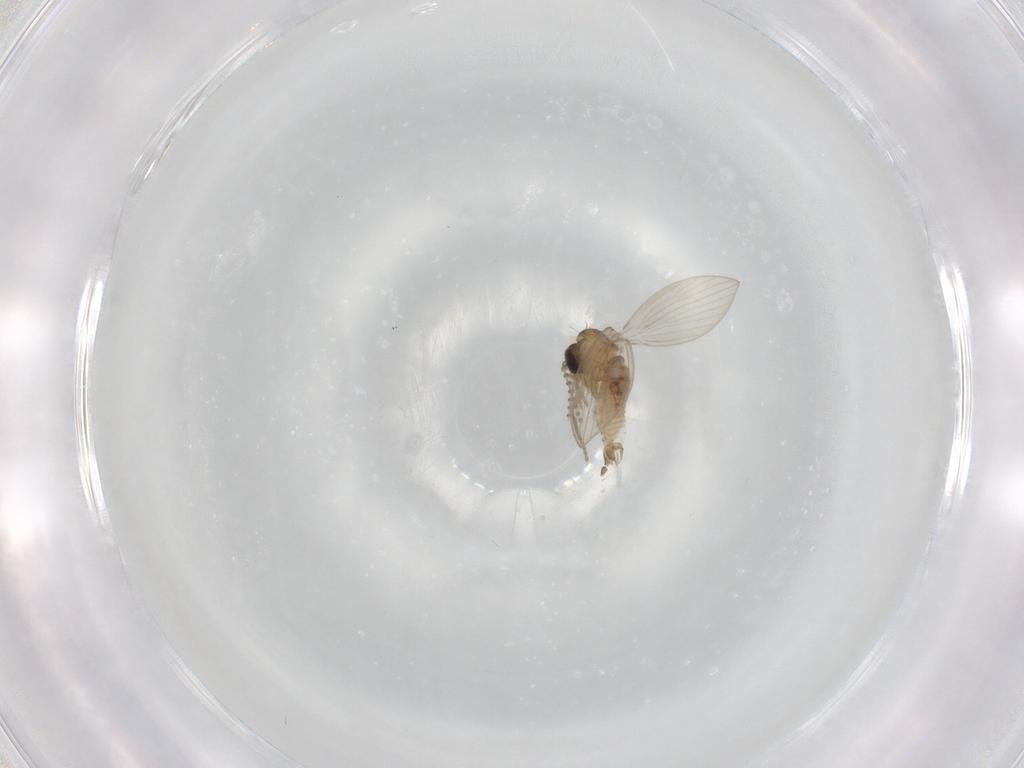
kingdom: Animalia
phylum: Arthropoda
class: Insecta
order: Diptera
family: Psychodidae
